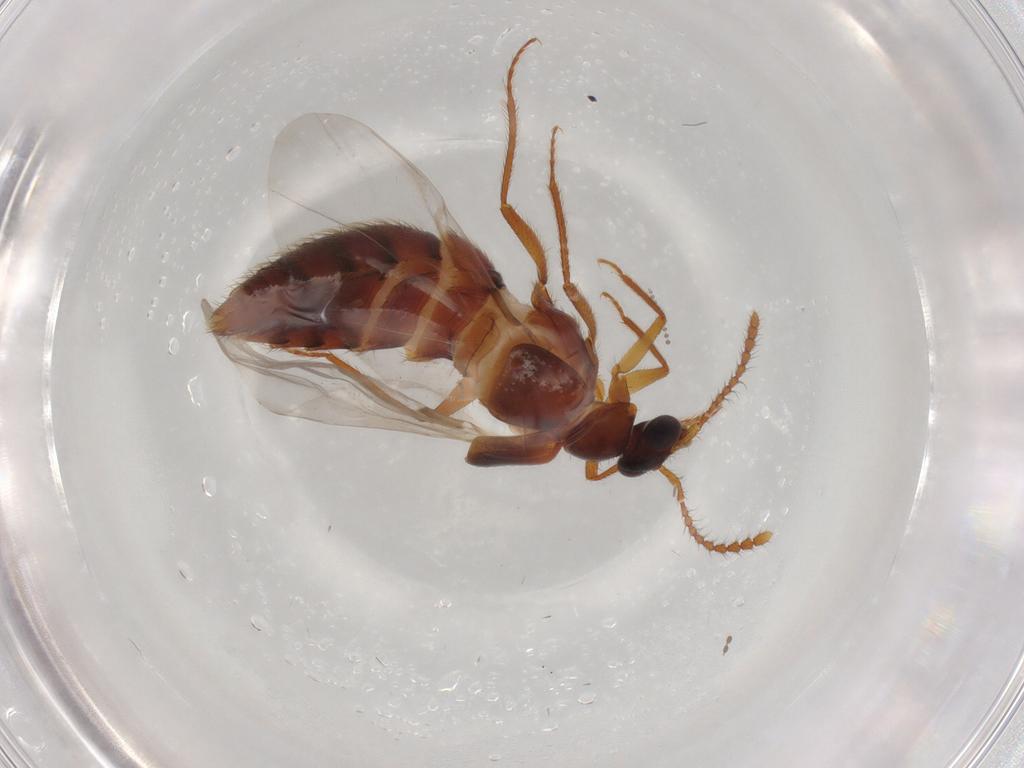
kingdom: Animalia
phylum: Arthropoda
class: Insecta
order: Coleoptera
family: Staphylinidae
